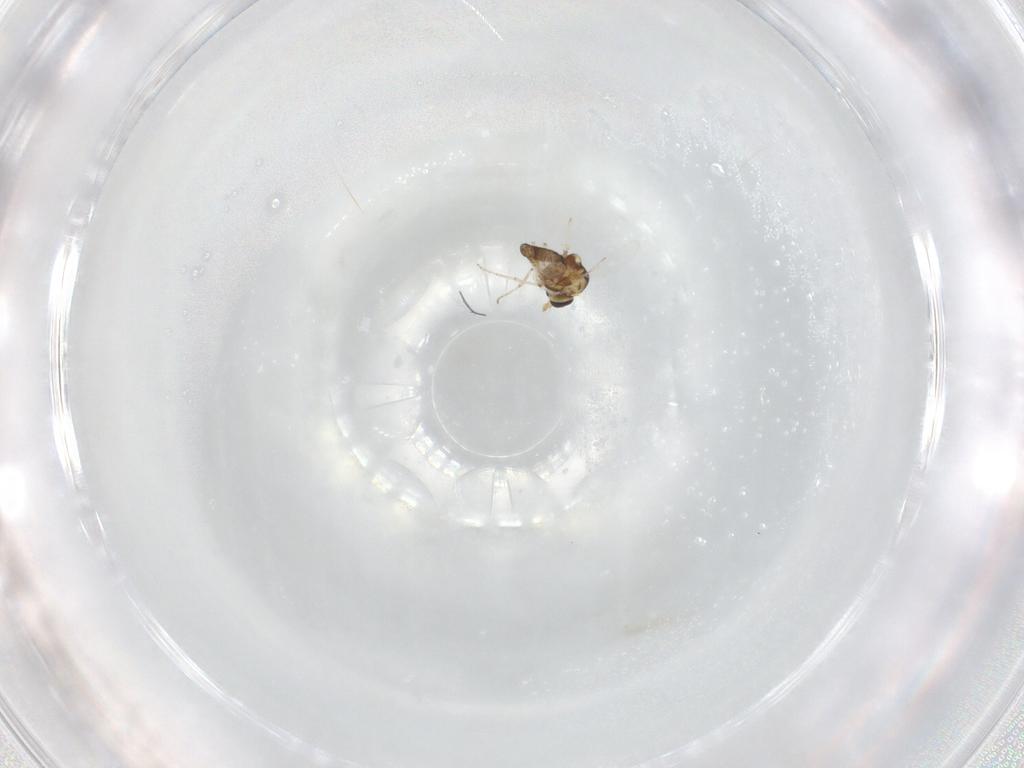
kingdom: Animalia
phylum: Arthropoda
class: Insecta
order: Diptera
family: Chironomidae
